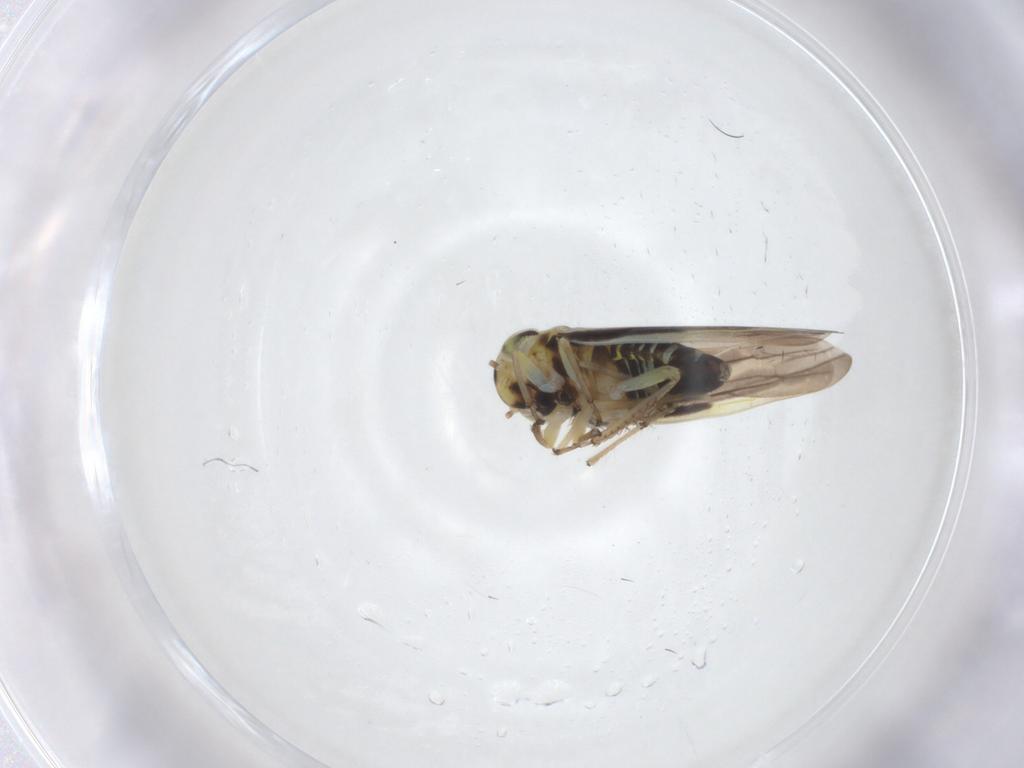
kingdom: Animalia
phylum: Arthropoda
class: Insecta
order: Hemiptera
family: Cicadellidae
